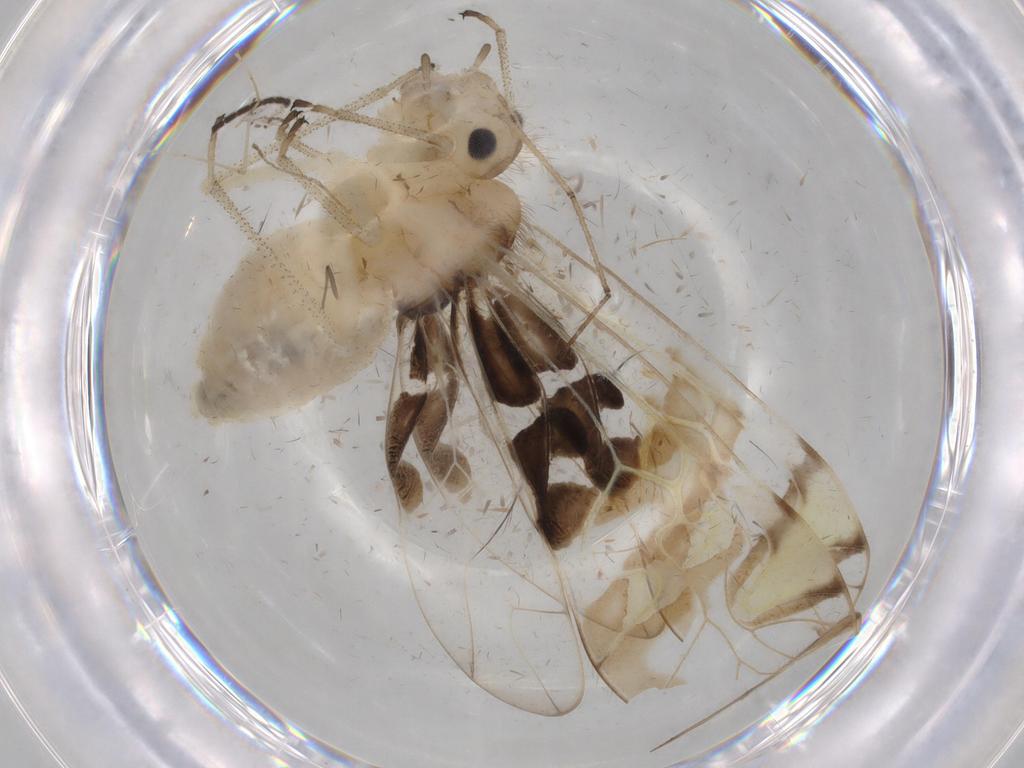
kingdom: Animalia
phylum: Arthropoda
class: Insecta
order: Psocodea
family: Amphipsocidae
